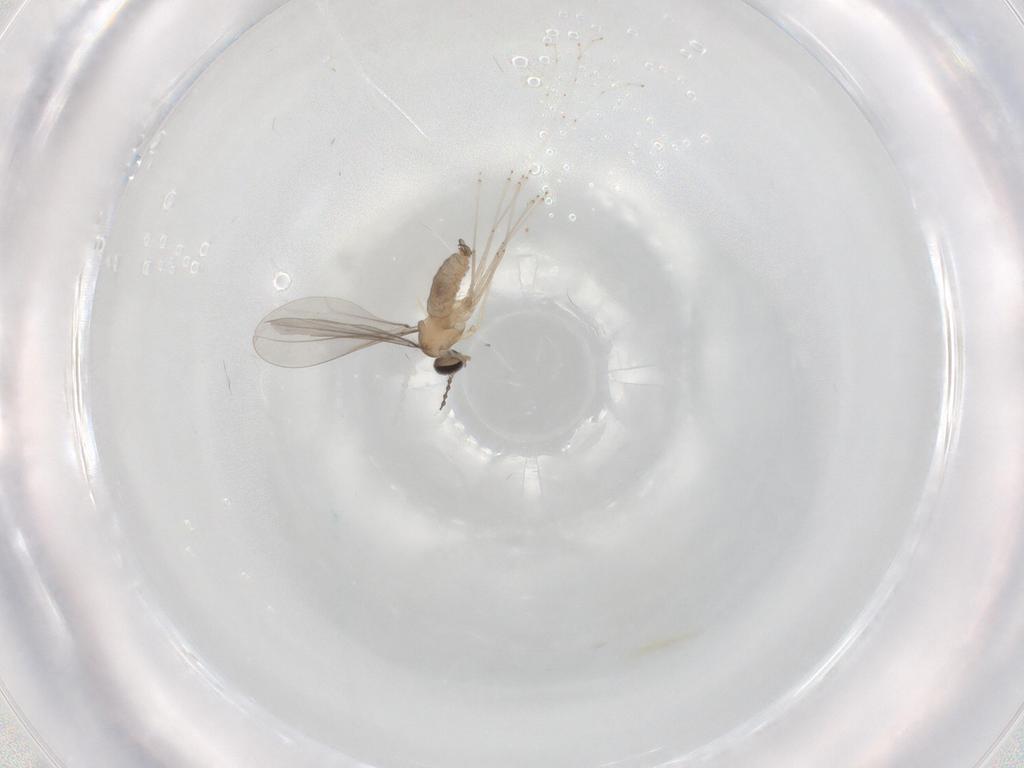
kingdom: Animalia
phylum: Arthropoda
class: Insecta
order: Diptera
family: Cecidomyiidae
